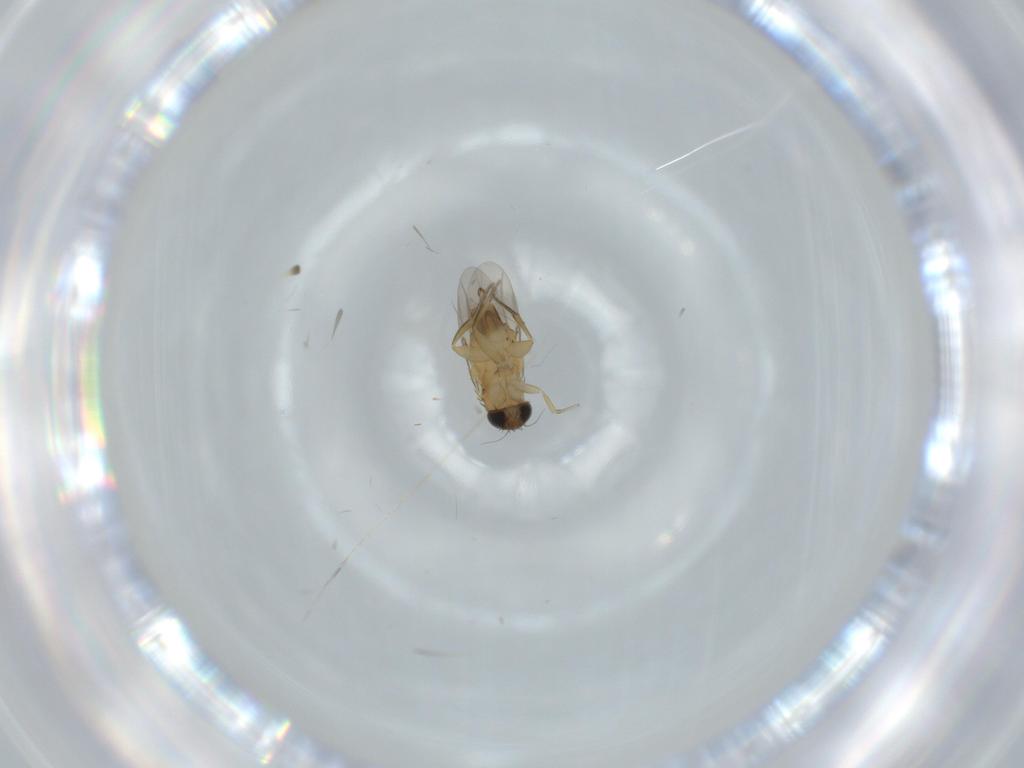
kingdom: Animalia
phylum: Arthropoda
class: Insecta
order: Diptera
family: Phoridae
